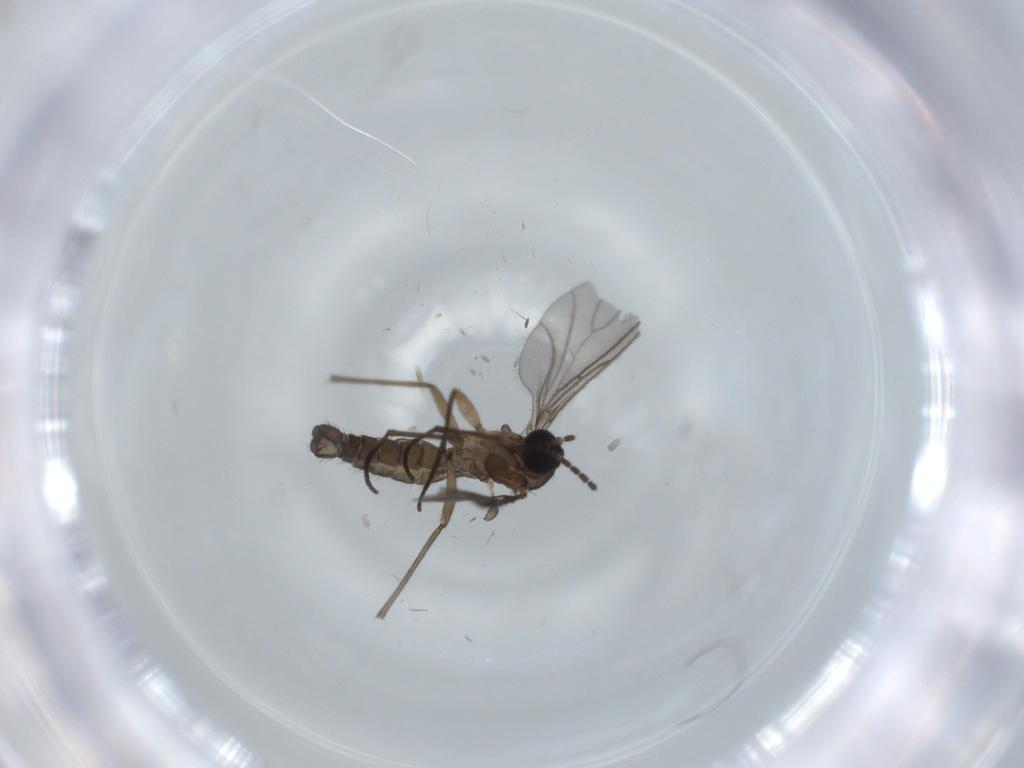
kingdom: Animalia
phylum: Arthropoda
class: Insecta
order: Diptera
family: Sciaridae
